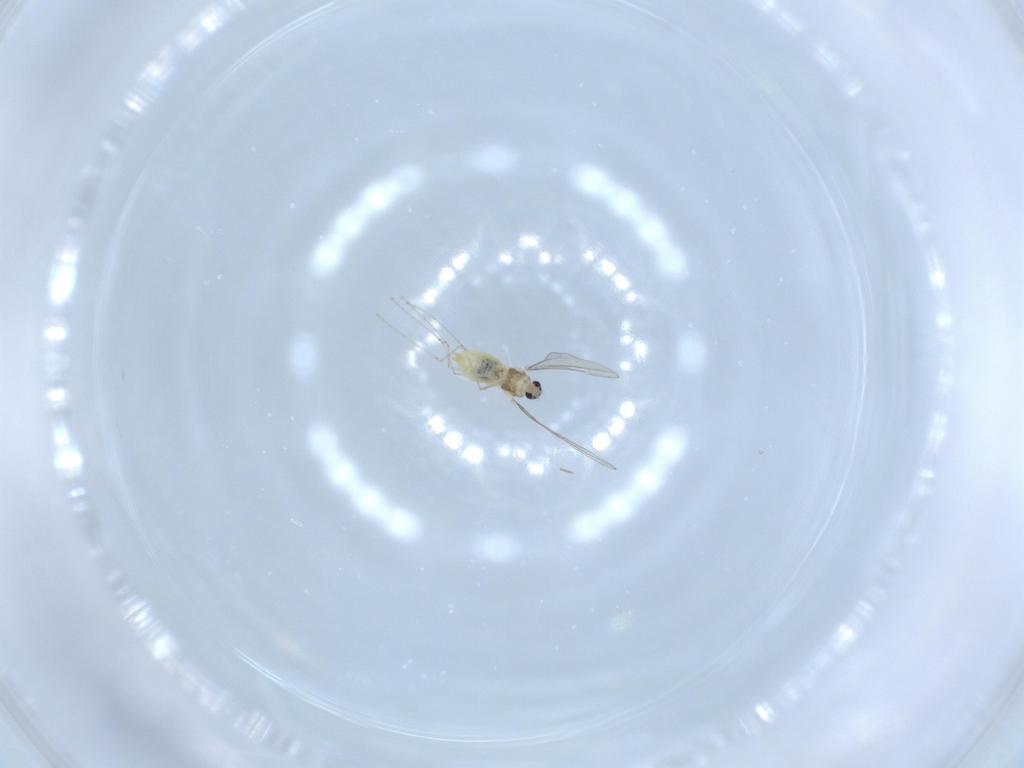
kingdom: Animalia
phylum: Arthropoda
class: Insecta
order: Diptera
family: Cecidomyiidae
